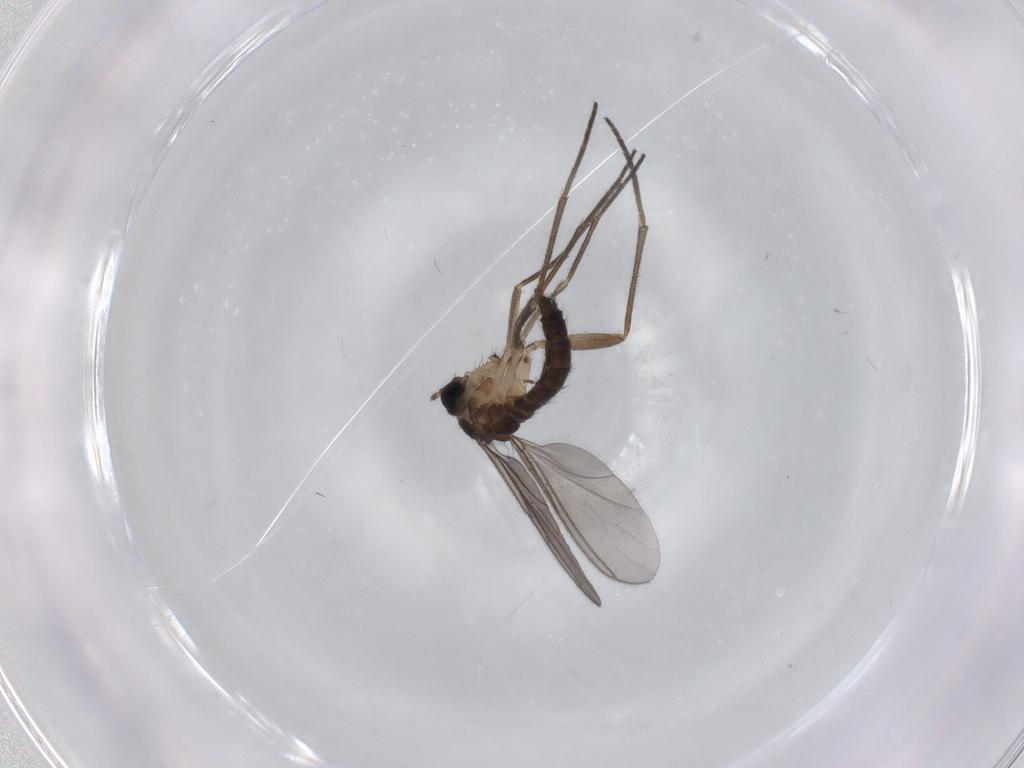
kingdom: Animalia
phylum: Arthropoda
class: Insecta
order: Diptera
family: Sciaridae
